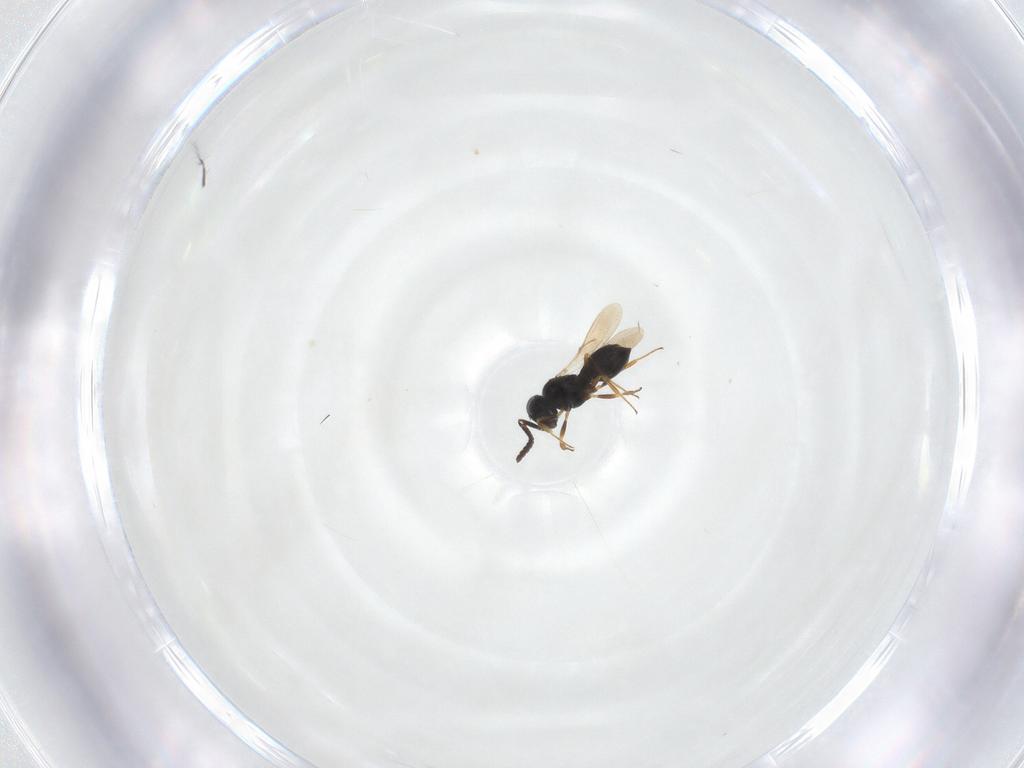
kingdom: Animalia
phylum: Arthropoda
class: Insecta
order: Hymenoptera
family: Scelionidae
